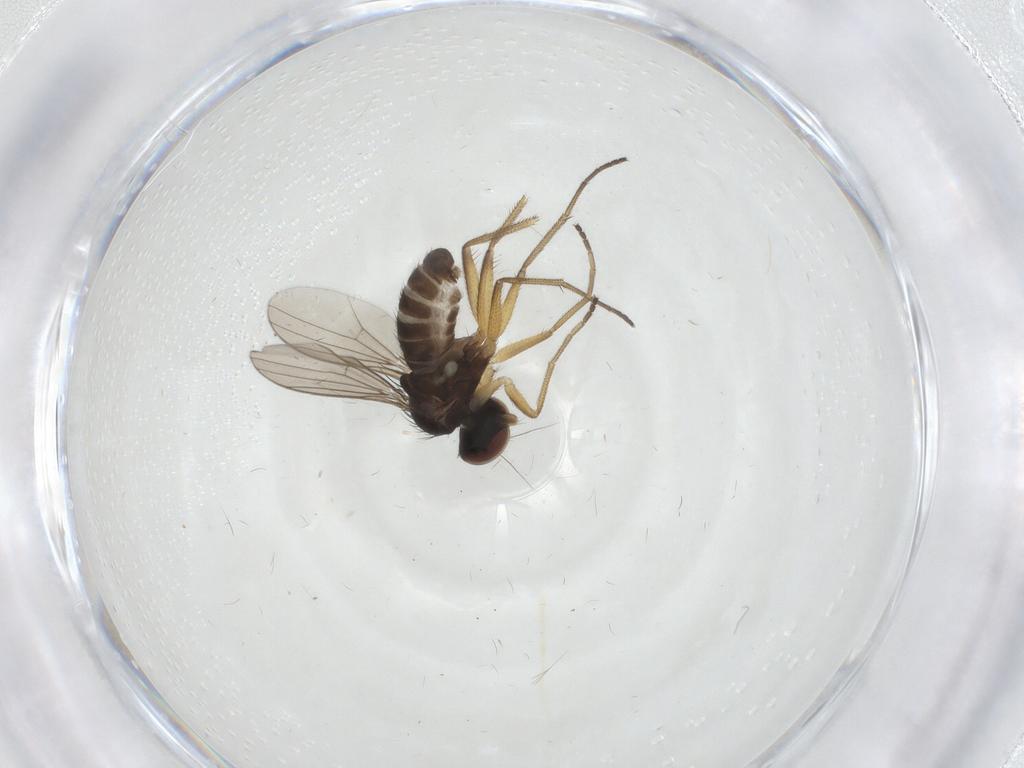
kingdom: Animalia
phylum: Arthropoda
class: Insecta
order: Diptera
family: Dolichopodidae
